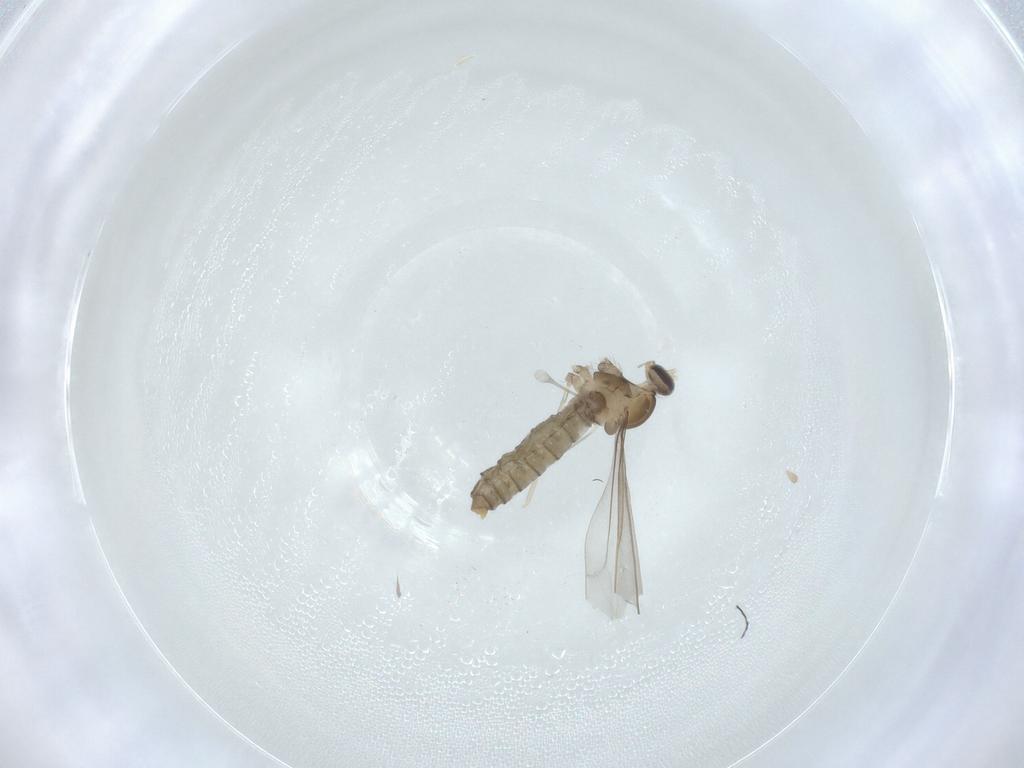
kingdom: Animalia
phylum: Arthropoda
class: Insecta
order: Diptera
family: Cecidomyiidae
